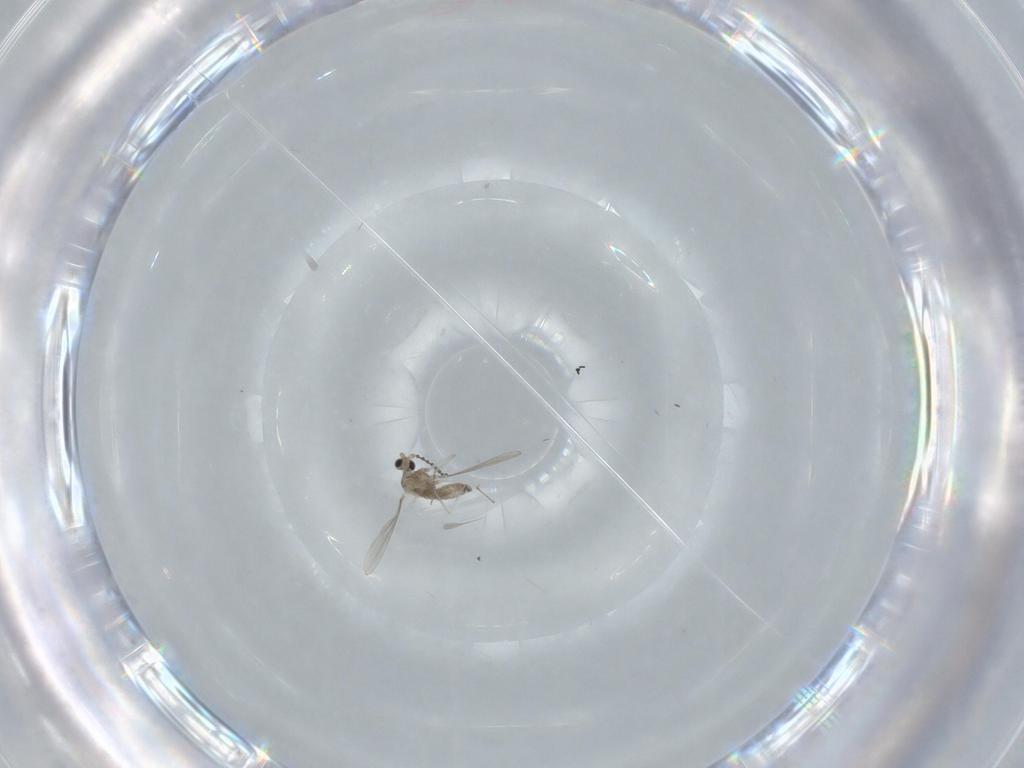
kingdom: Animalia
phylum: Arthropoda
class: Insecta
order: Diptera
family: Cecidomyiidae
